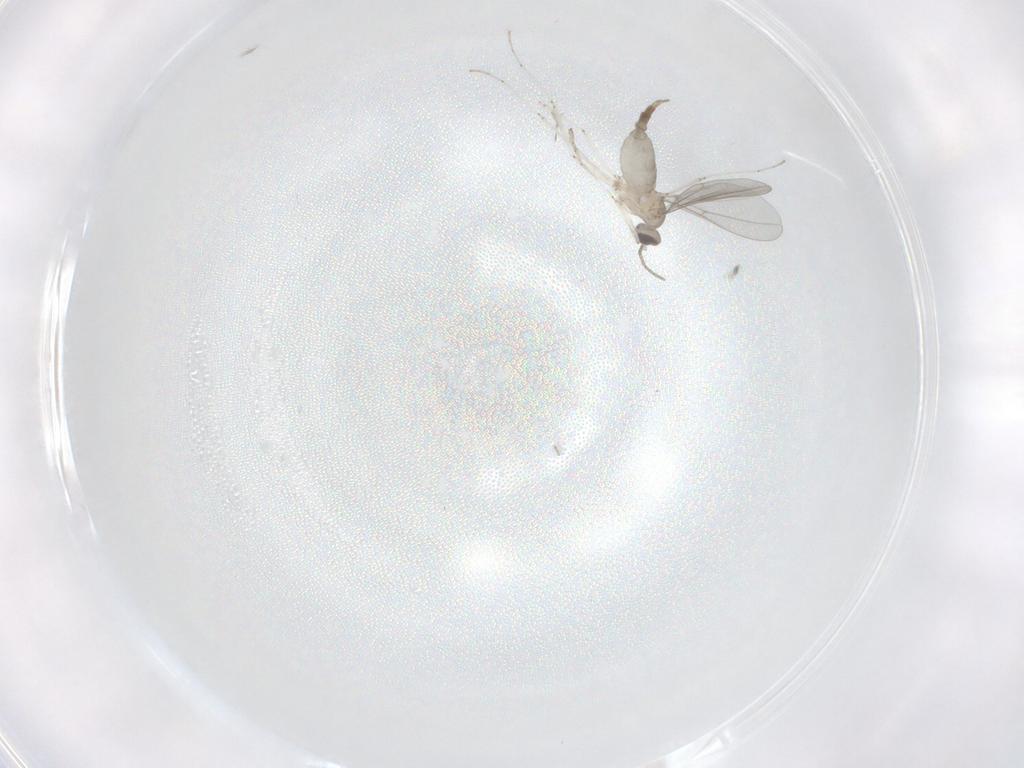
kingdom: Animalia
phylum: Arthropoda
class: Insecta
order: Diptera
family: Cecidomyiidae
